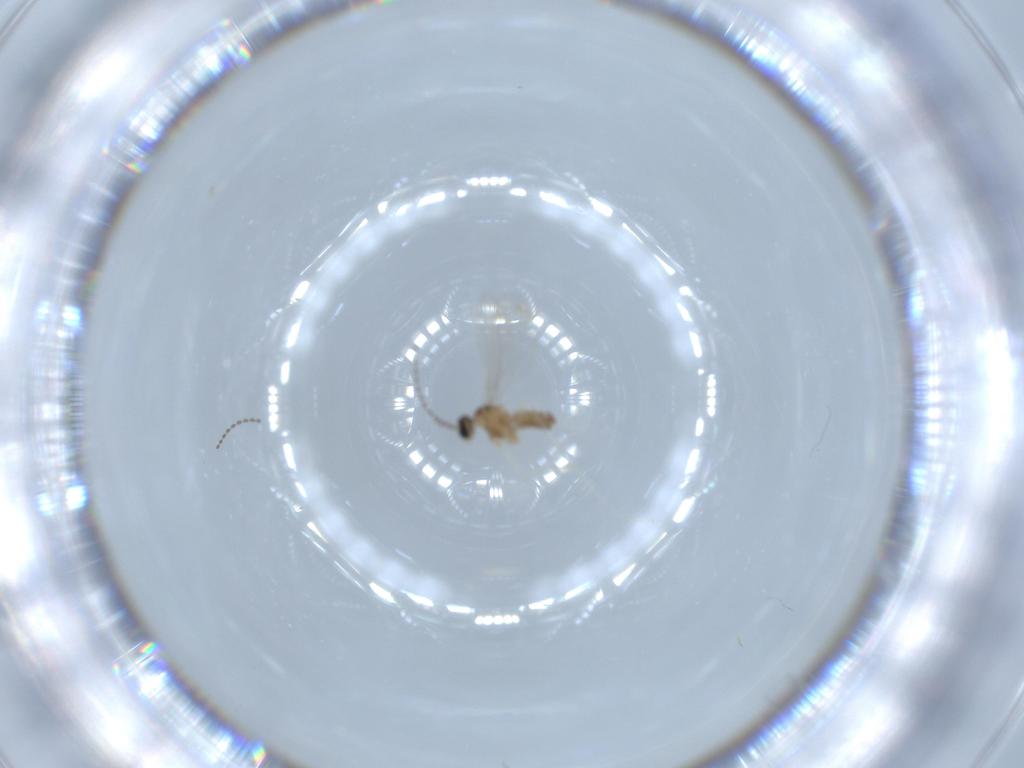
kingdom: Animalia
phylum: Arthropoda
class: Insecta
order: Diptera
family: Cecidomyiidae
